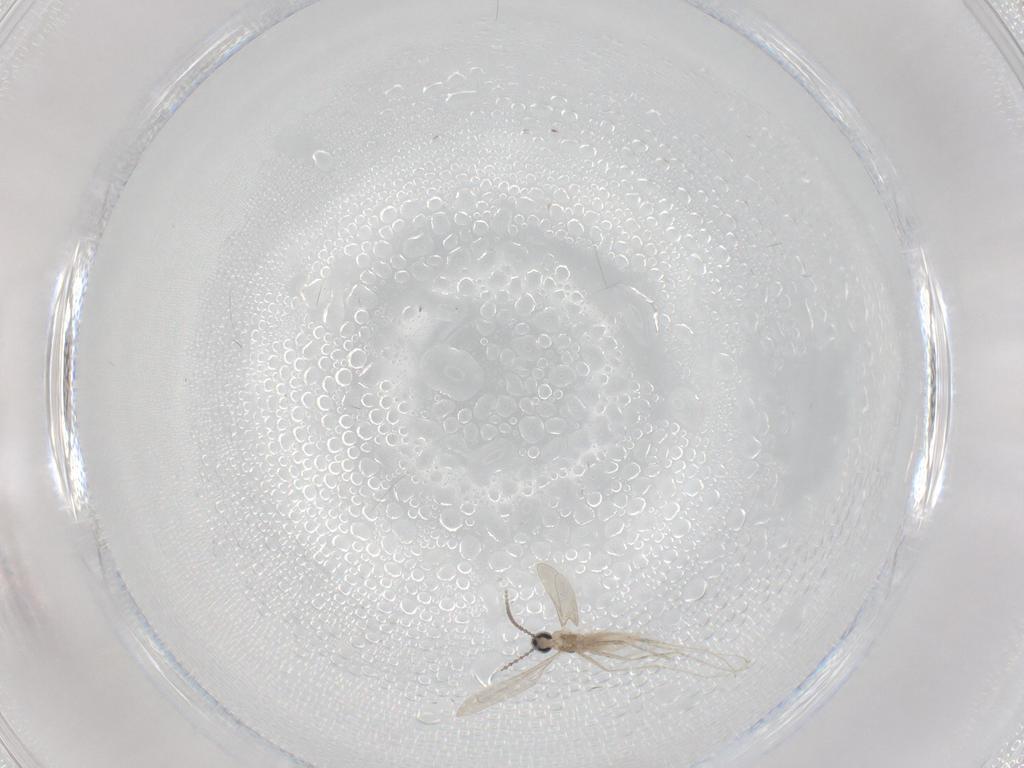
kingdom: Animalia
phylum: Arthropoda
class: Insecta
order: Diptera
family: Cecidomyiidae
